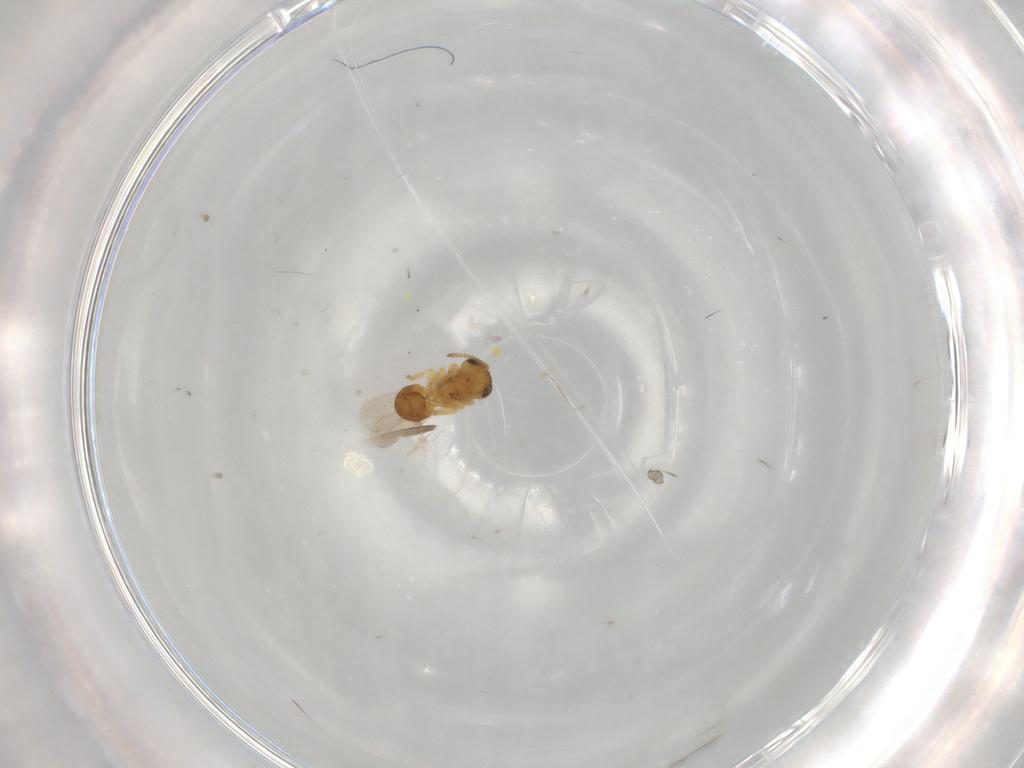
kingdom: Animalia
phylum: Arthropoda
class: Insecta
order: Hymenoptera
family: Scelionidae
